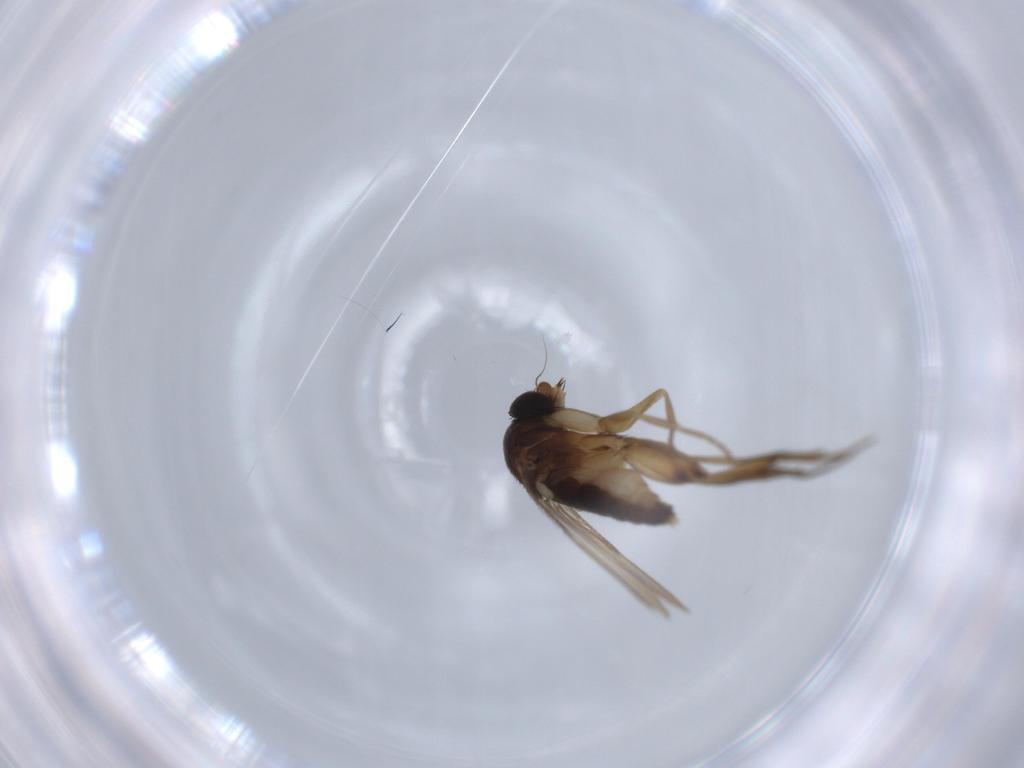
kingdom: Animalia
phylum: Arthropoda
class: Insecta
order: Diptera
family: Phoridae
